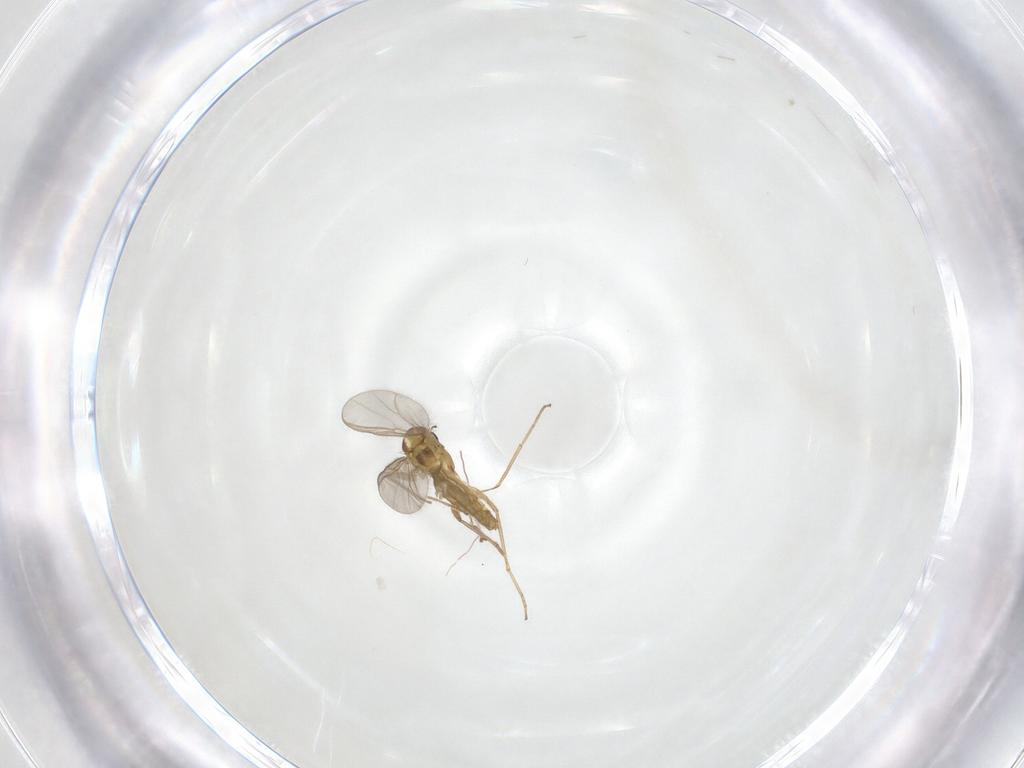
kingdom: Animalia
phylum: Arthropoda
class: Insecta
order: Diptera
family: Chironomidae
